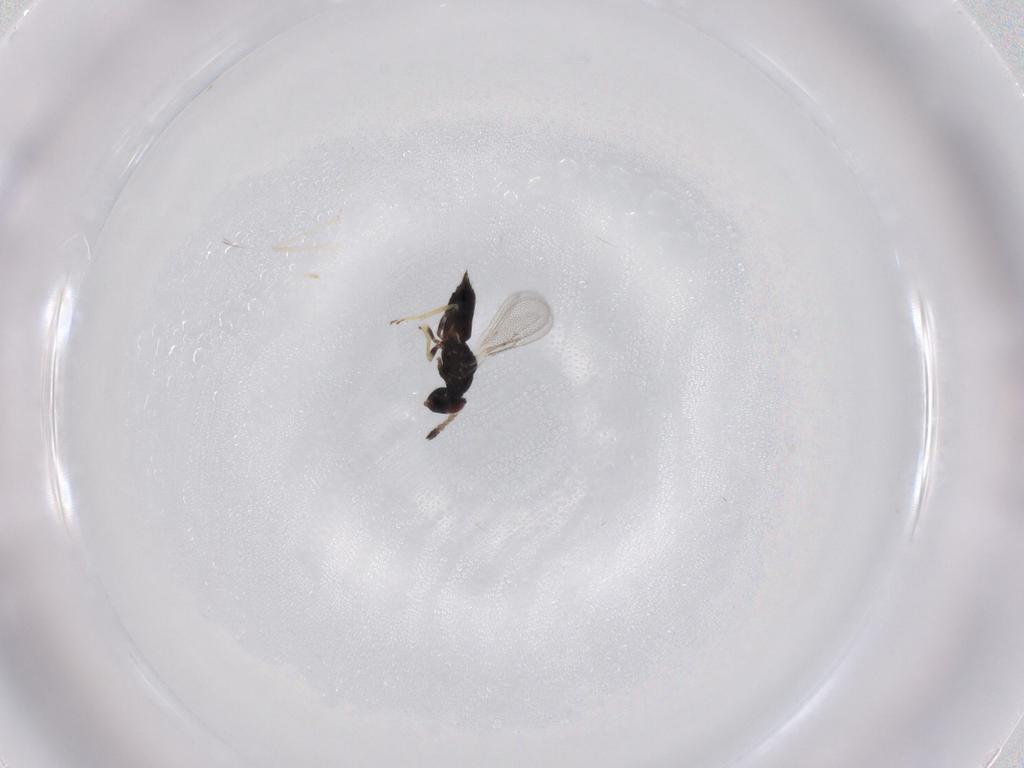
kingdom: Animalia
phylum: Arthropoda
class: Insecta
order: Hymenoptera
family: Eulophidae
